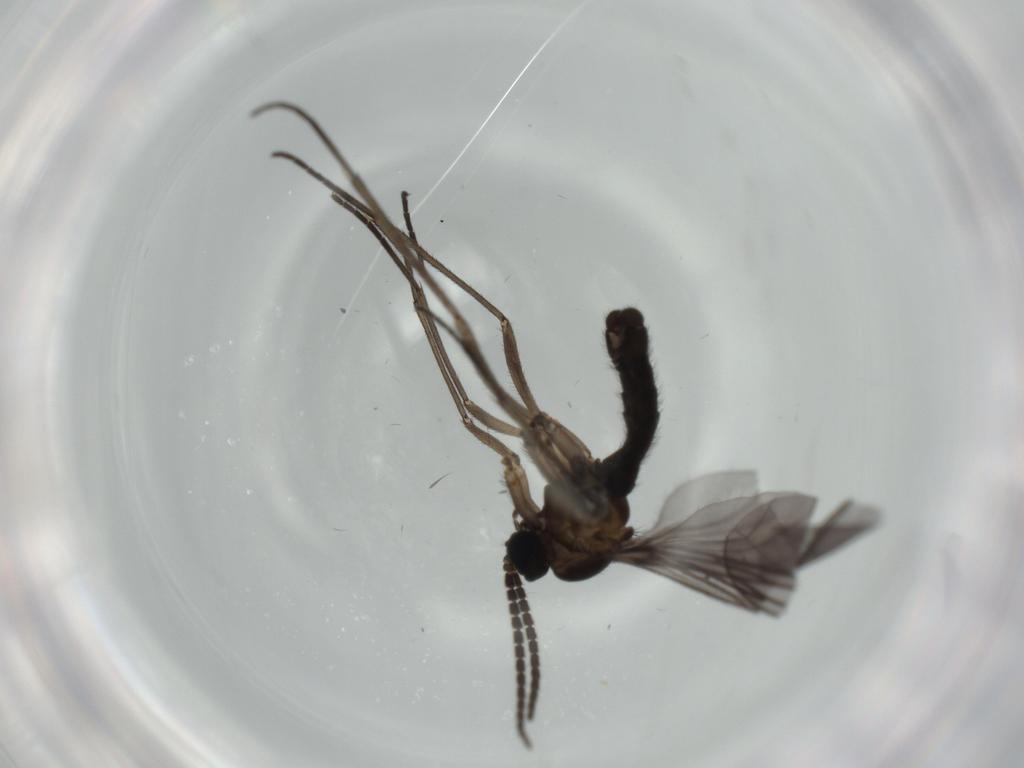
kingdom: Animalia
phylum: Arthropoda
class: Insecta
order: Diptera
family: Sciaridae
